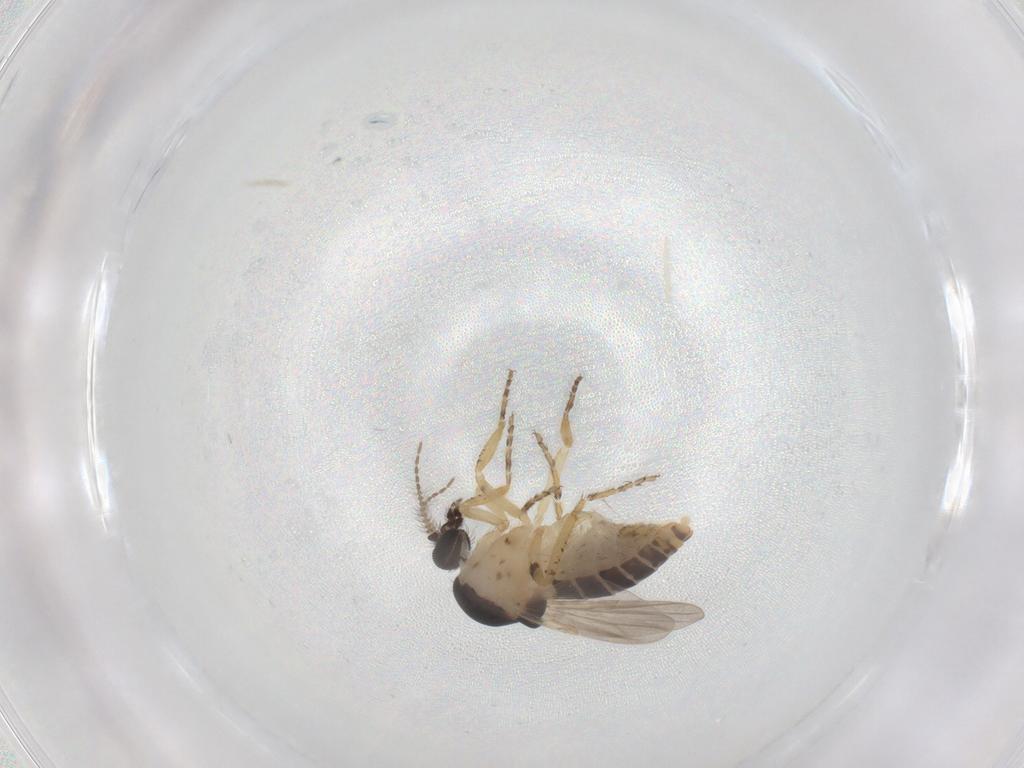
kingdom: Animalia
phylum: Arthropoda
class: Insecta
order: Diptera
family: Ceratopogonidae
